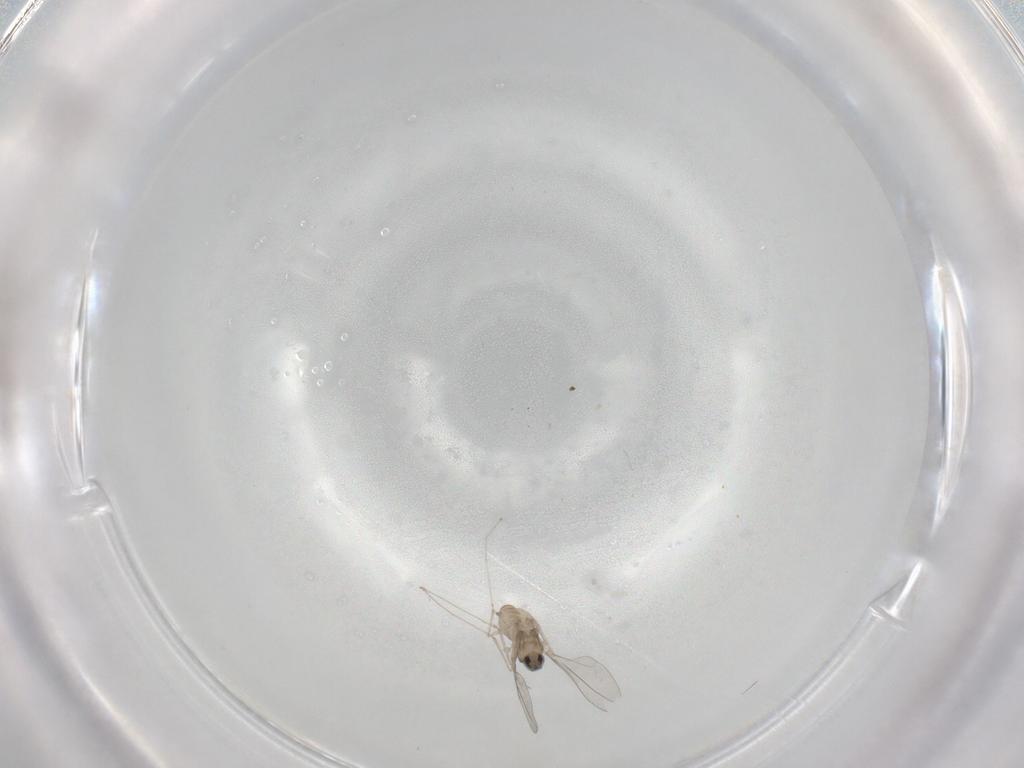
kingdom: Animalia
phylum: Arthropoda
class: Insecta
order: Diptera
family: Cecidomyiidae
